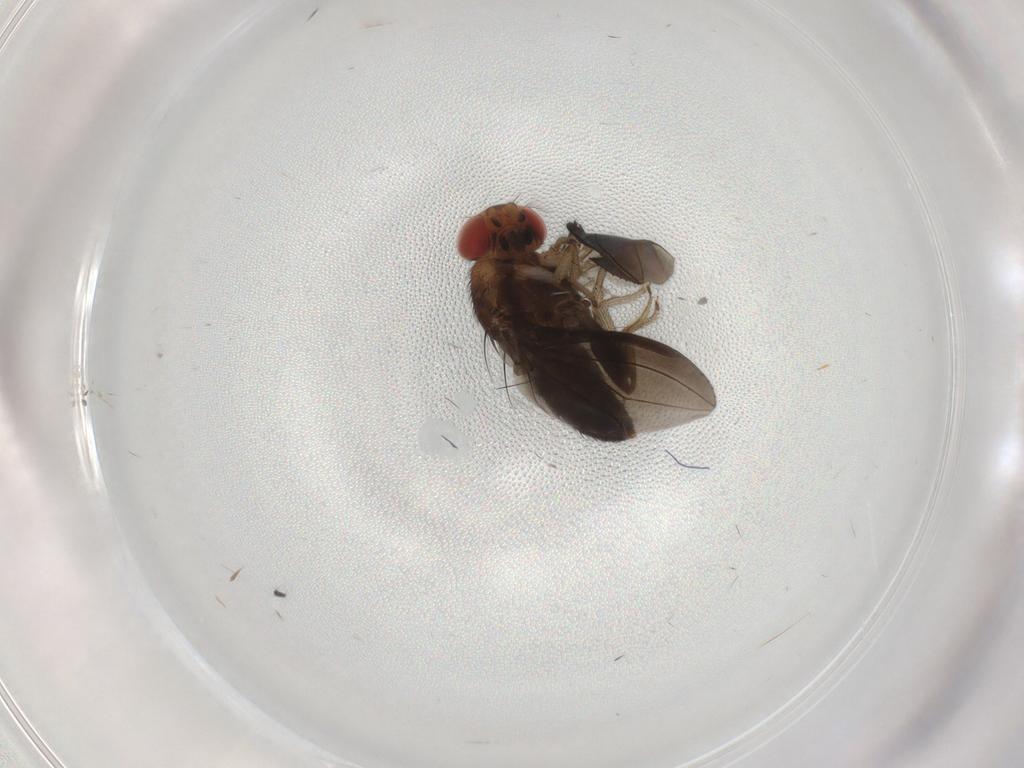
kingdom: Animalia
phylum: Arthropoda
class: Insecta
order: Diptera
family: Drosophilidae
